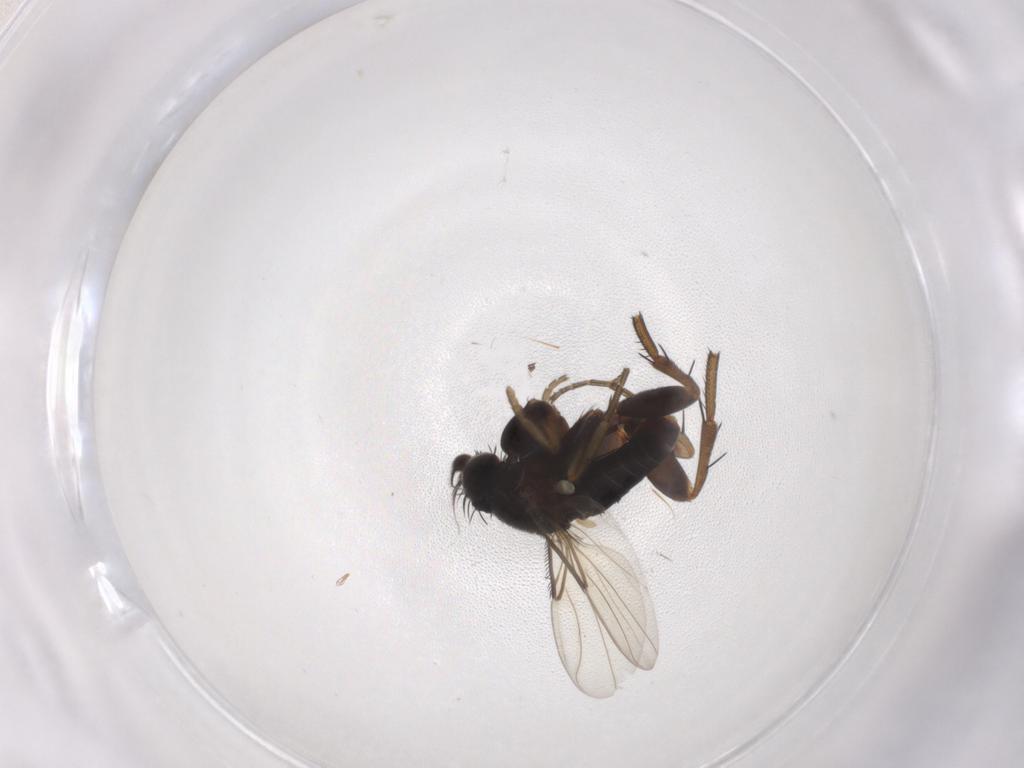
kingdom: Animalia
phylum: Arthropoda
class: Insecta
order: Diptera
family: Phoridae
